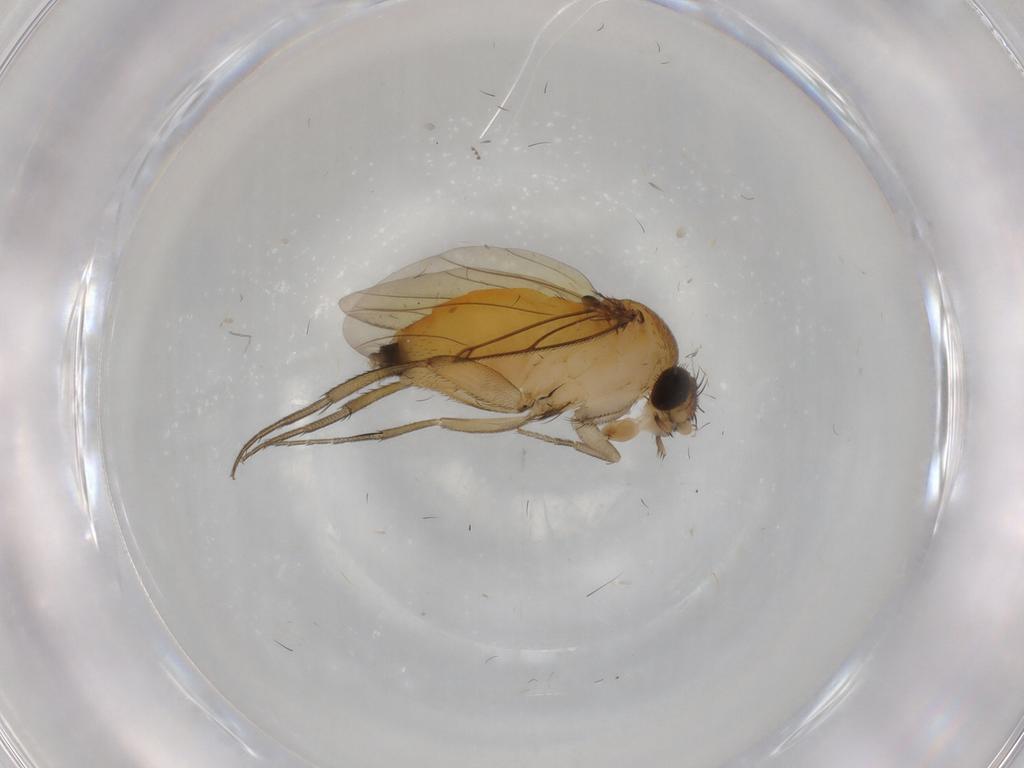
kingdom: Animalia
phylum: Arthropoda
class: Insecta
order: Diptera
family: Phoridae
